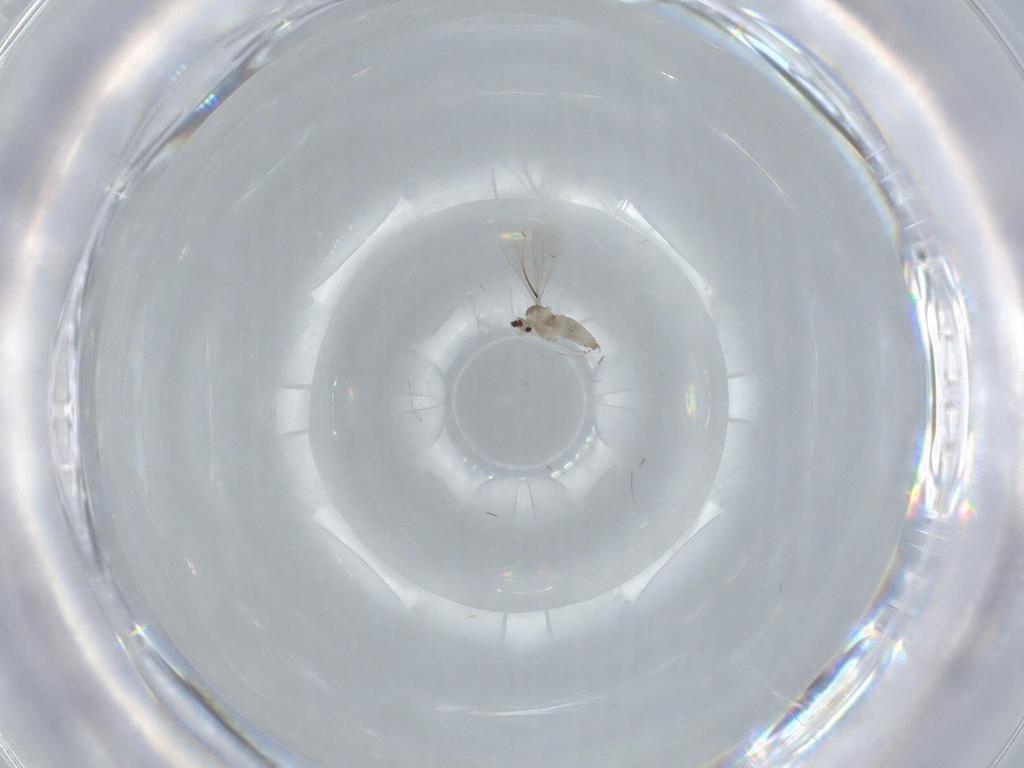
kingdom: Animalia
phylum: Arthropoda
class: Insecta
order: Diptera
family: Cecidomyiidae
